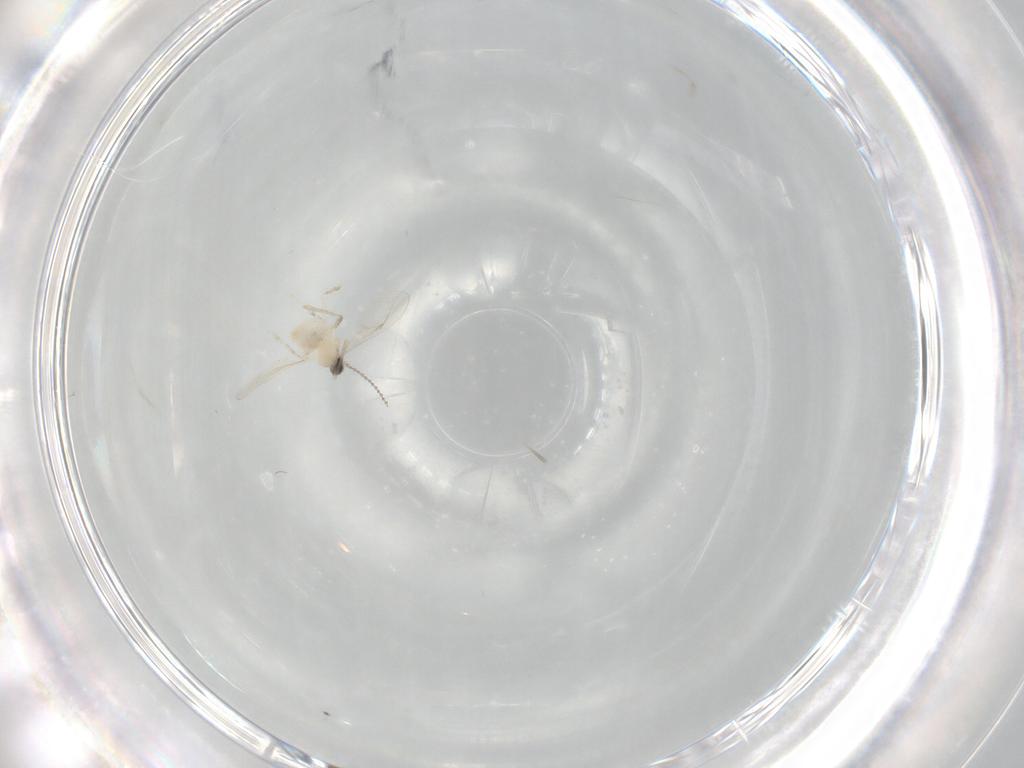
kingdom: Animalia
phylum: Arthropoda
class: Insecta
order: Diptera
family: Cecidomyiidae
